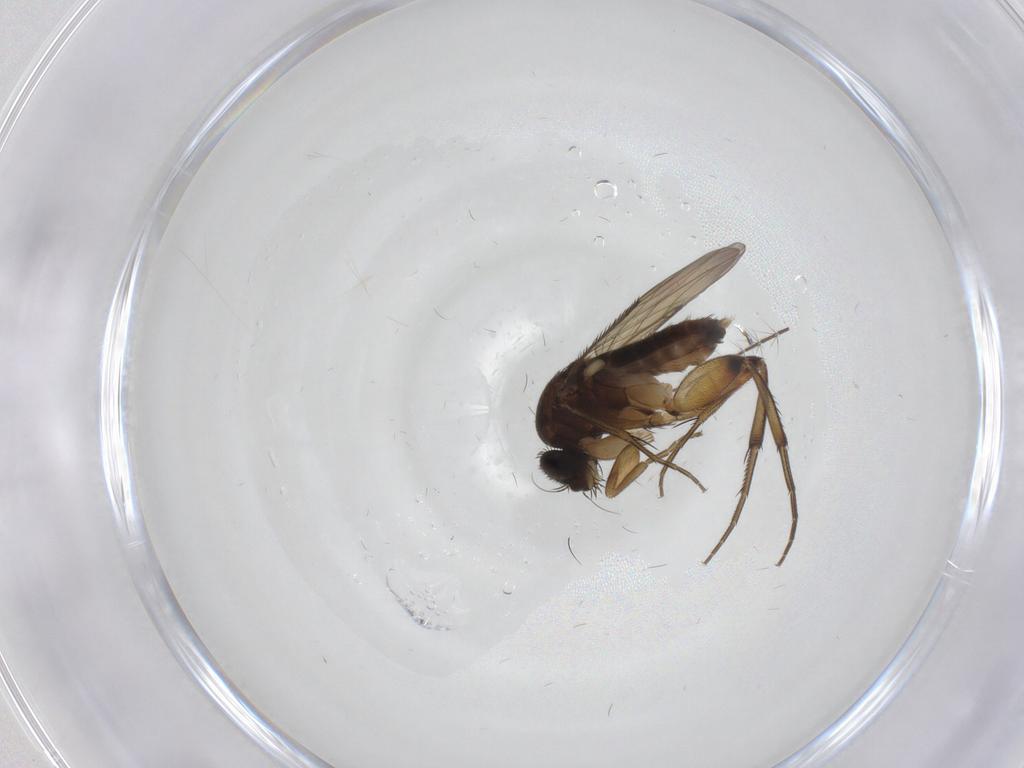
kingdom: Animalia
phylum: Arthropoda
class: Insecta
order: Diptera
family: Phoridae
